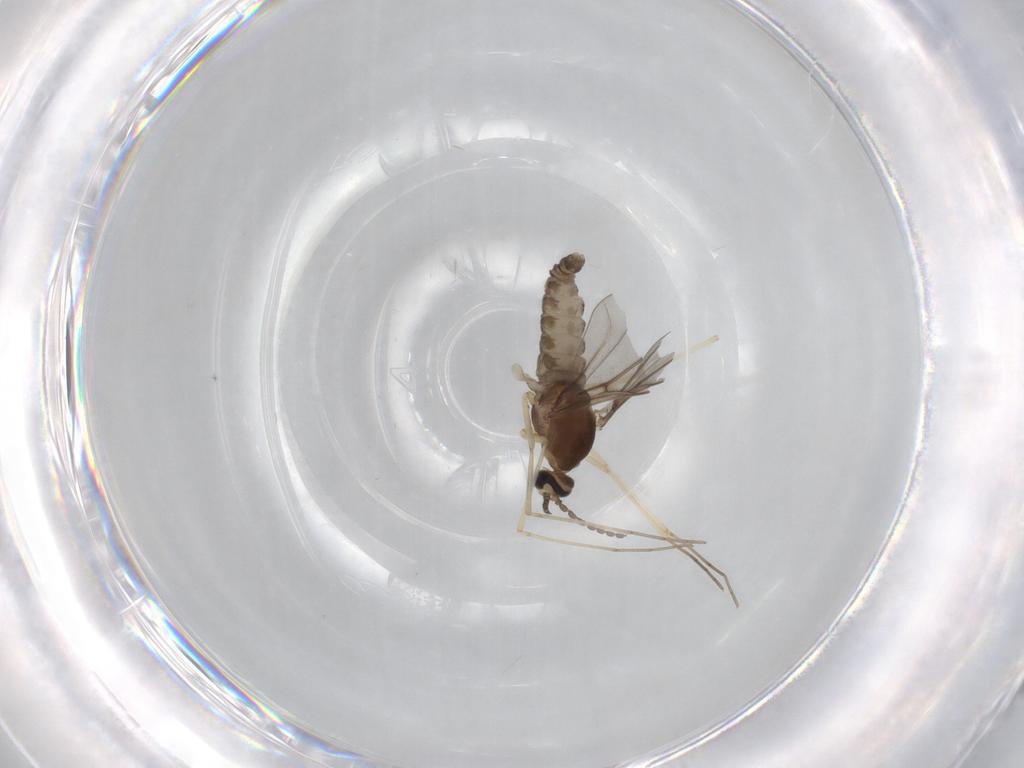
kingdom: Animalia
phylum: Arthropoda
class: Insecta
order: Diptera
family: Cecidomyiidae
